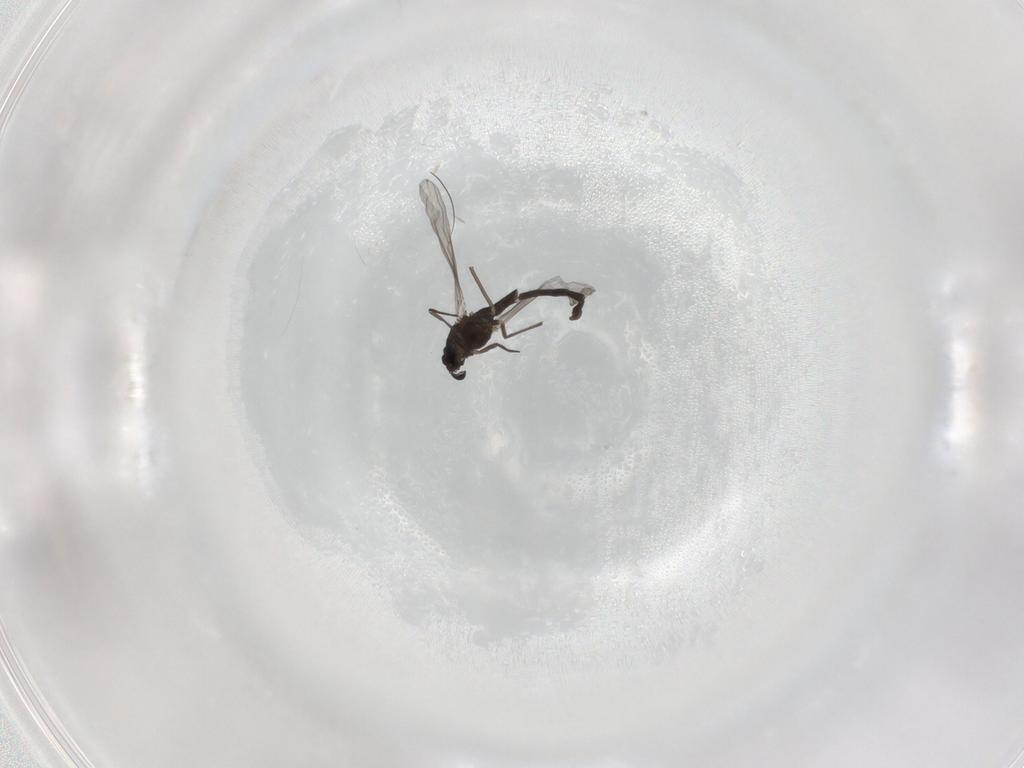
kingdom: Animalia
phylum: Arthropoda
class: Insecta
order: Diptera
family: Chironomidae
